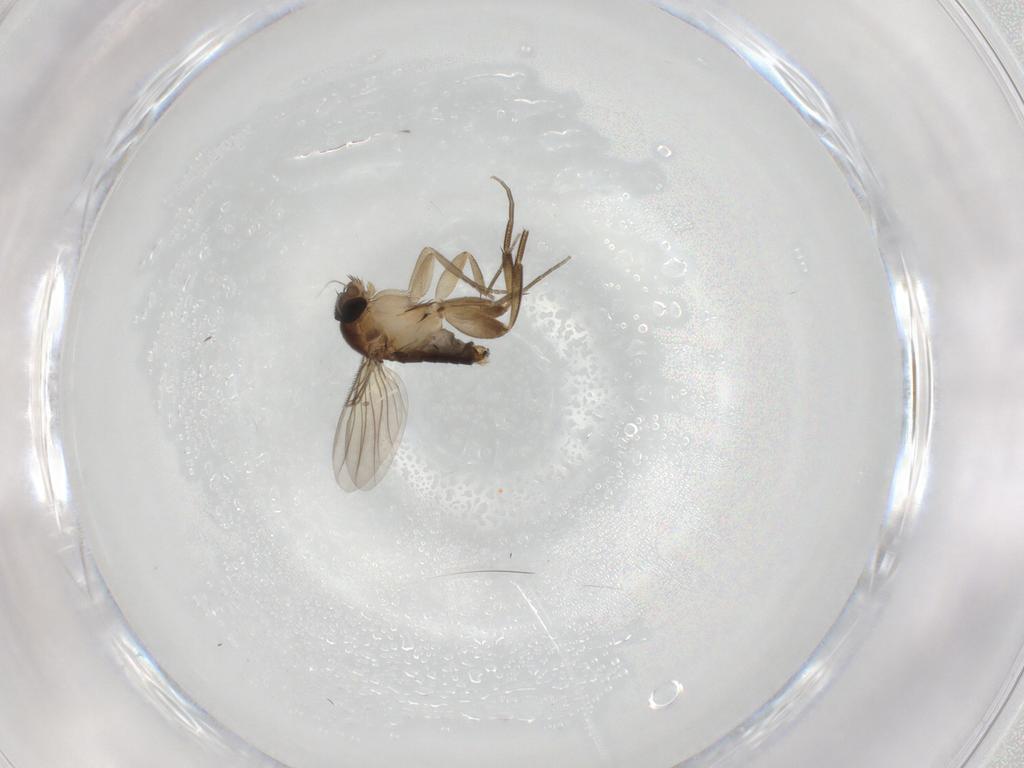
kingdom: Animalia
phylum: Arthropoda
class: Insecta
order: Diptera
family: Phoridae
